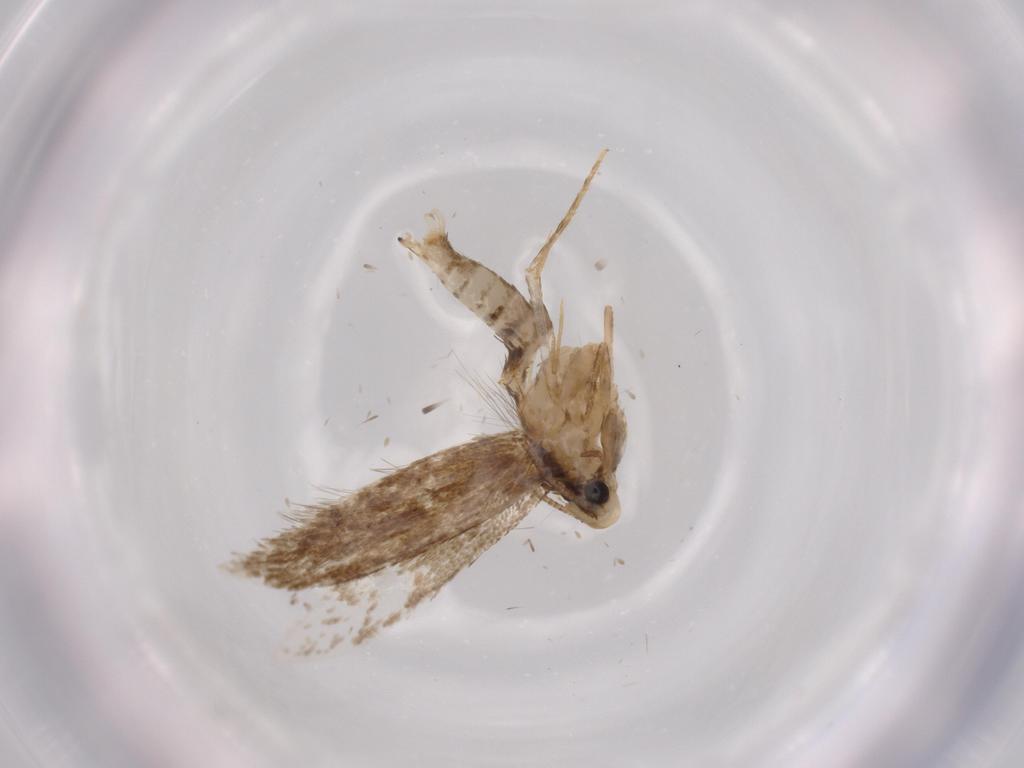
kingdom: Animalia
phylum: Arthropoda
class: Insecta
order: Lepidoptera
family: Tineidae
